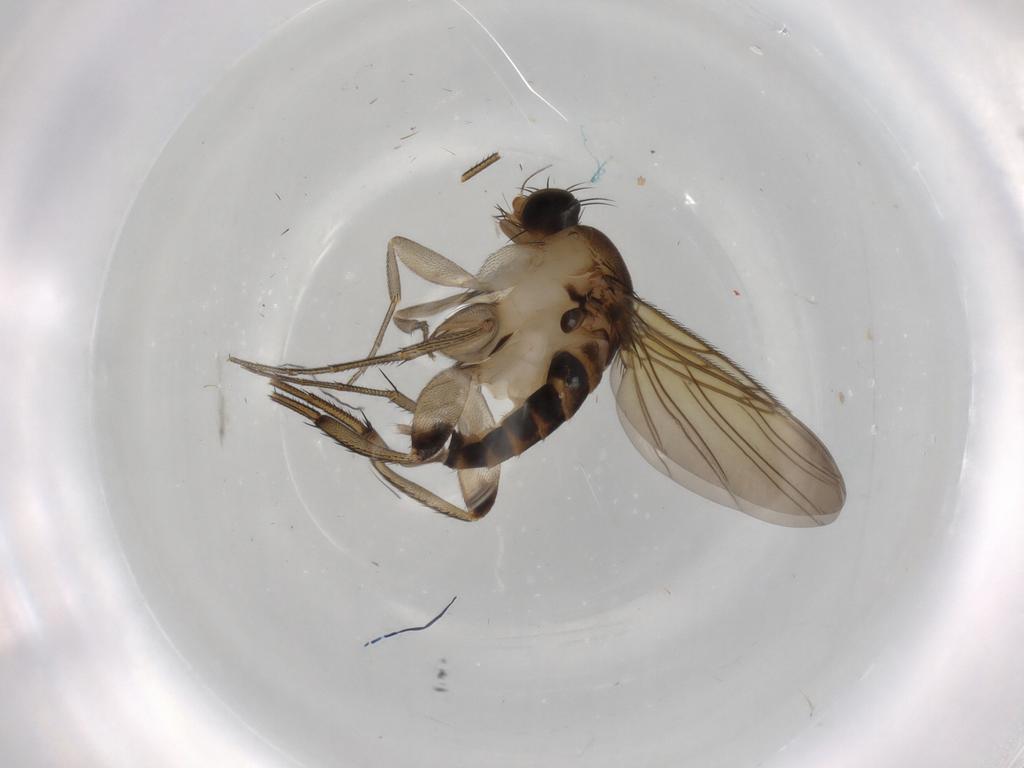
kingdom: Animalia
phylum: Arthropoda
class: Insecta
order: Diptera
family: Phoridae
